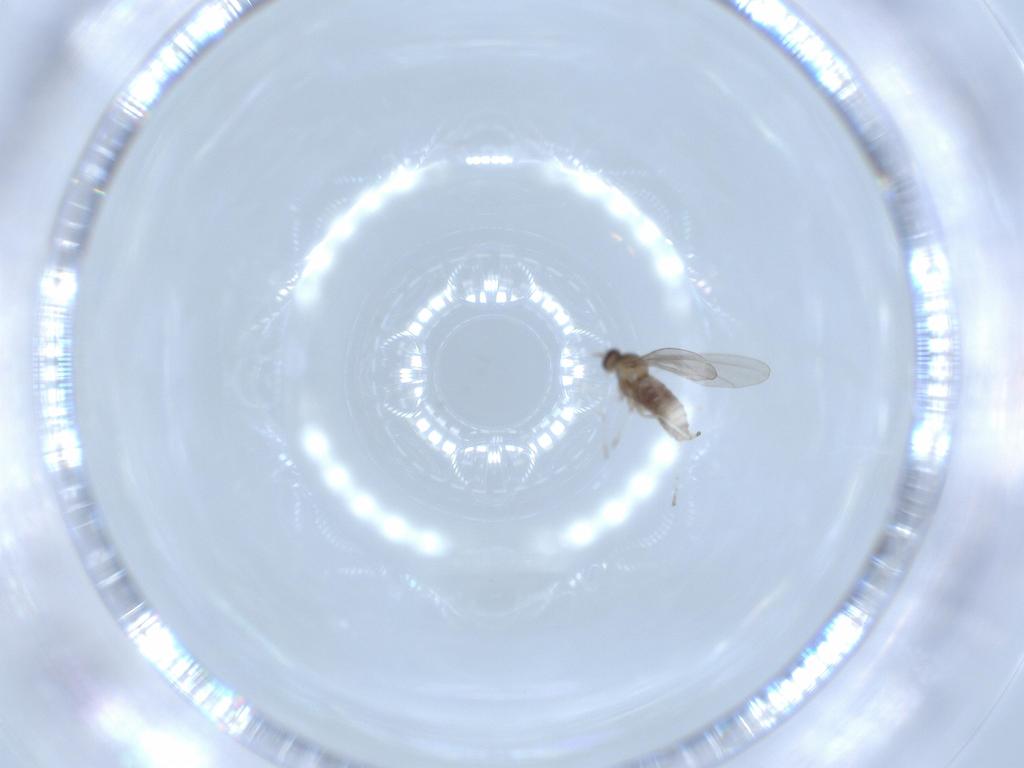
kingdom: Animalia
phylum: Arthropoda
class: Insecta
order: Diptera
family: Cecidomyiidae
